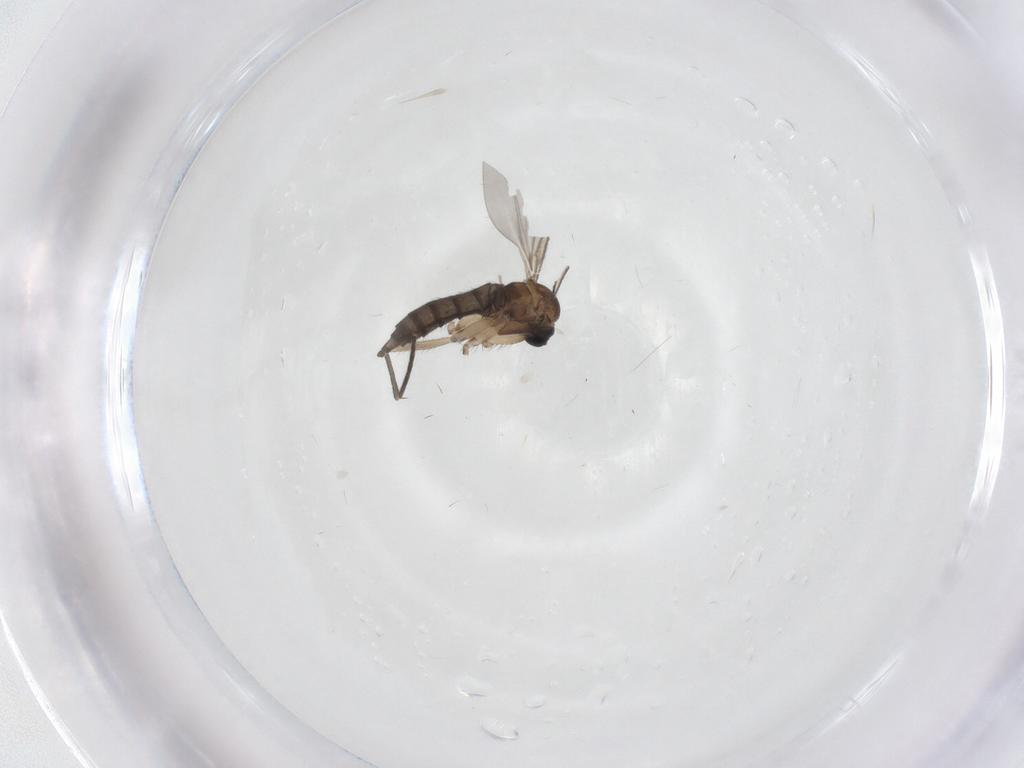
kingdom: Animalia
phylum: Arthropoda
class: Insecta
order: Diptera
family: Sciaridae
